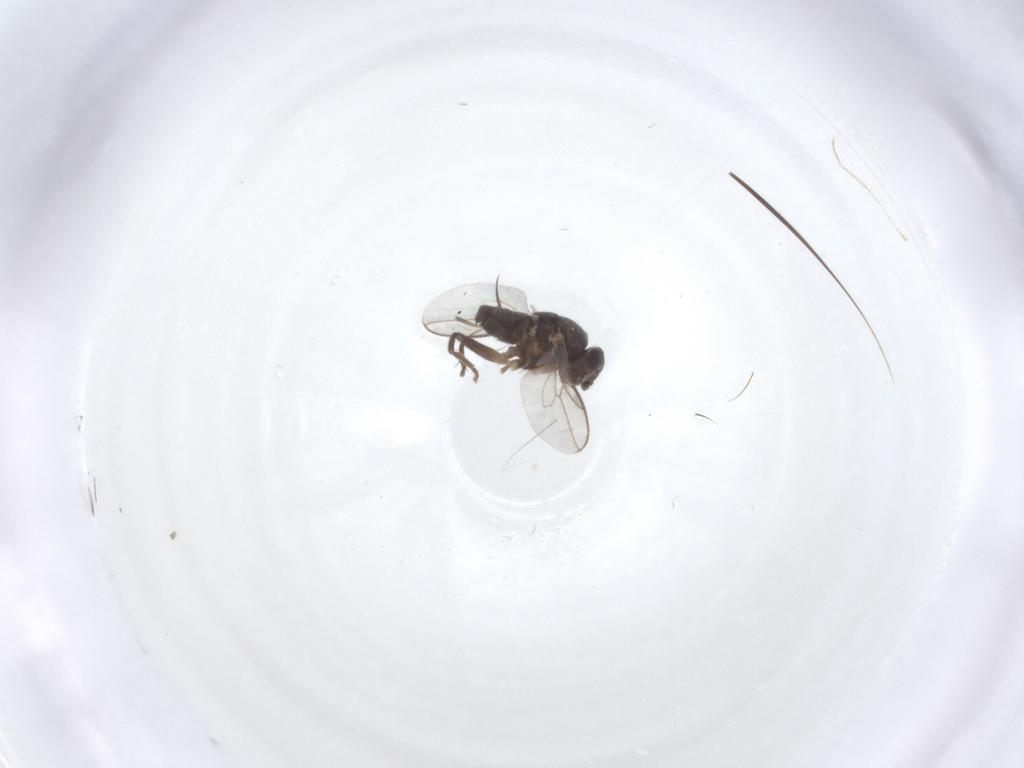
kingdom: Animalia
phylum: Arthropoda
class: Insecta
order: Diptera
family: Sphaeroceridae
